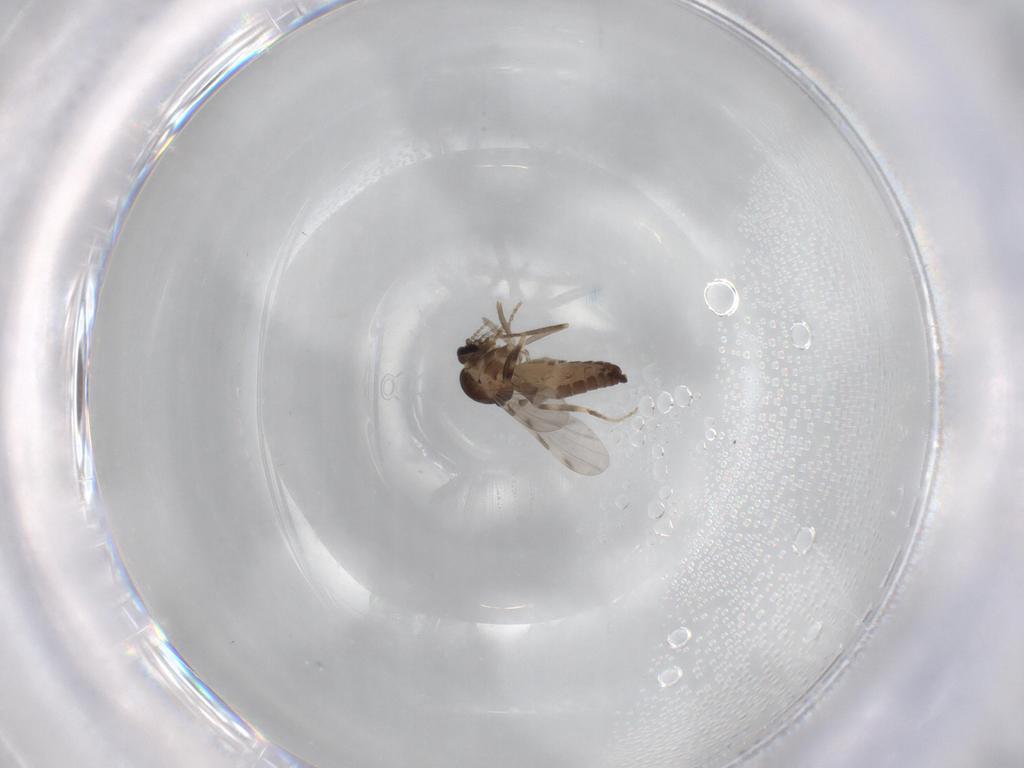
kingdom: Animalia
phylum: Arthropoda
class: Insecta
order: Diptera
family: Ceratopogonidae
